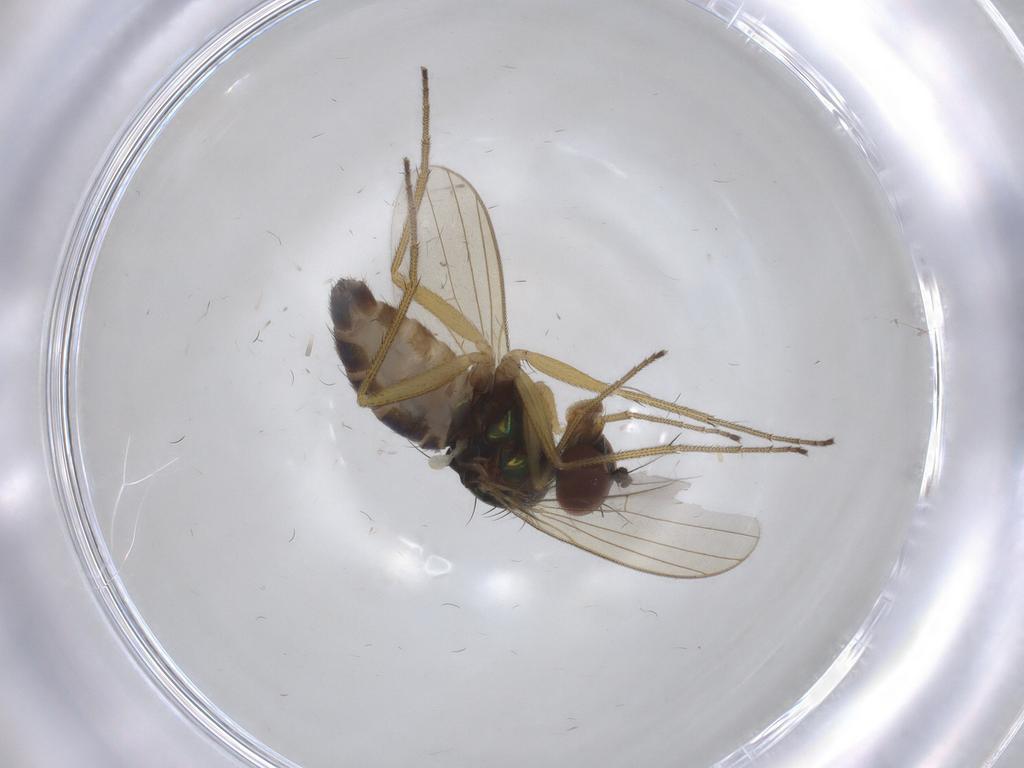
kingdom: Animalia
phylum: Arthropoda
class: Insecta
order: Diptera
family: Dolichopodidae
